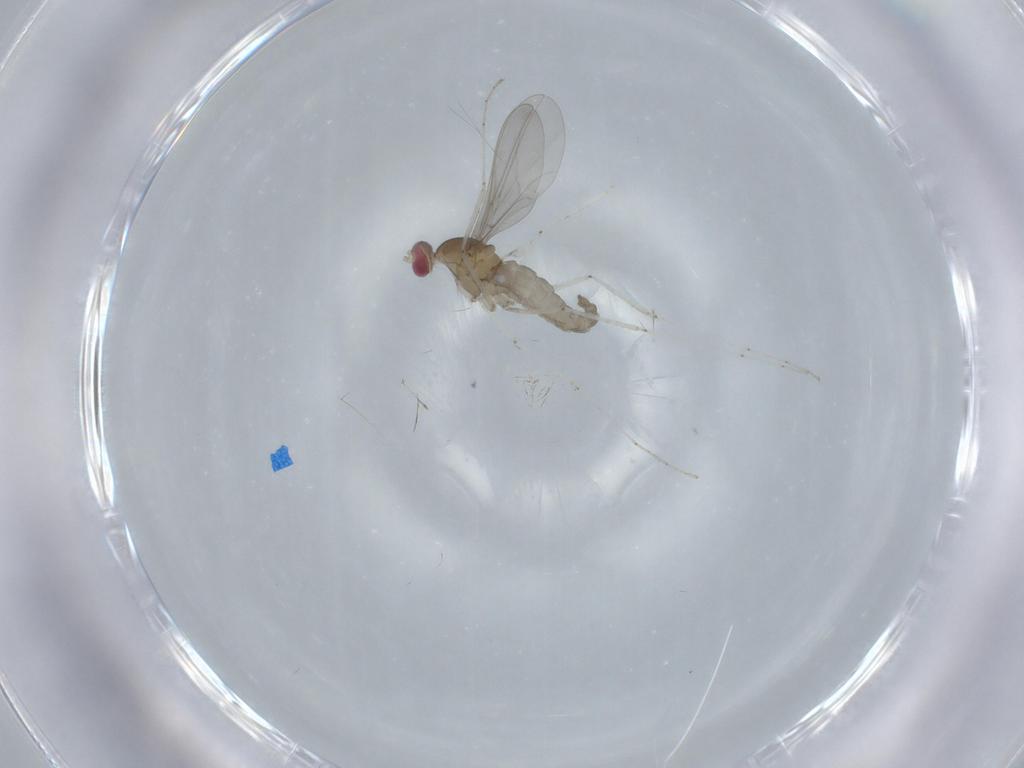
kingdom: Animalia
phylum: Arthropoda
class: Insecta
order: Diptera
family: Cecidomyiidae
